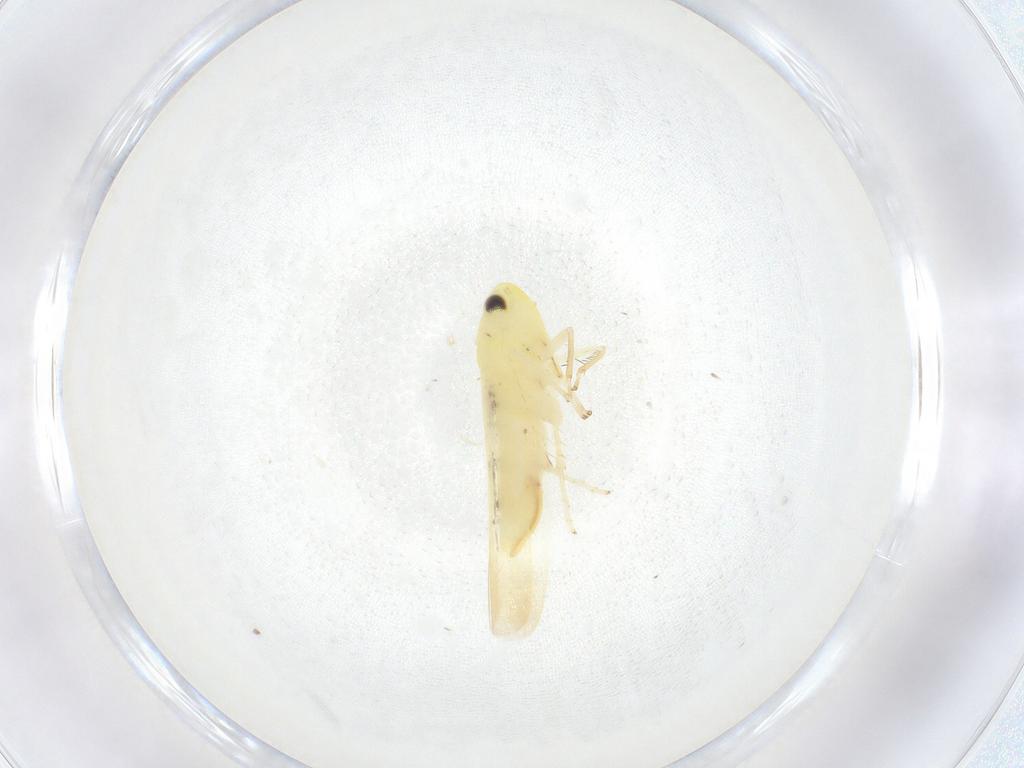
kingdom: Animalia
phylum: Arthropoda
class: Insecta
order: Hemiptera
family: Cicadellidae
